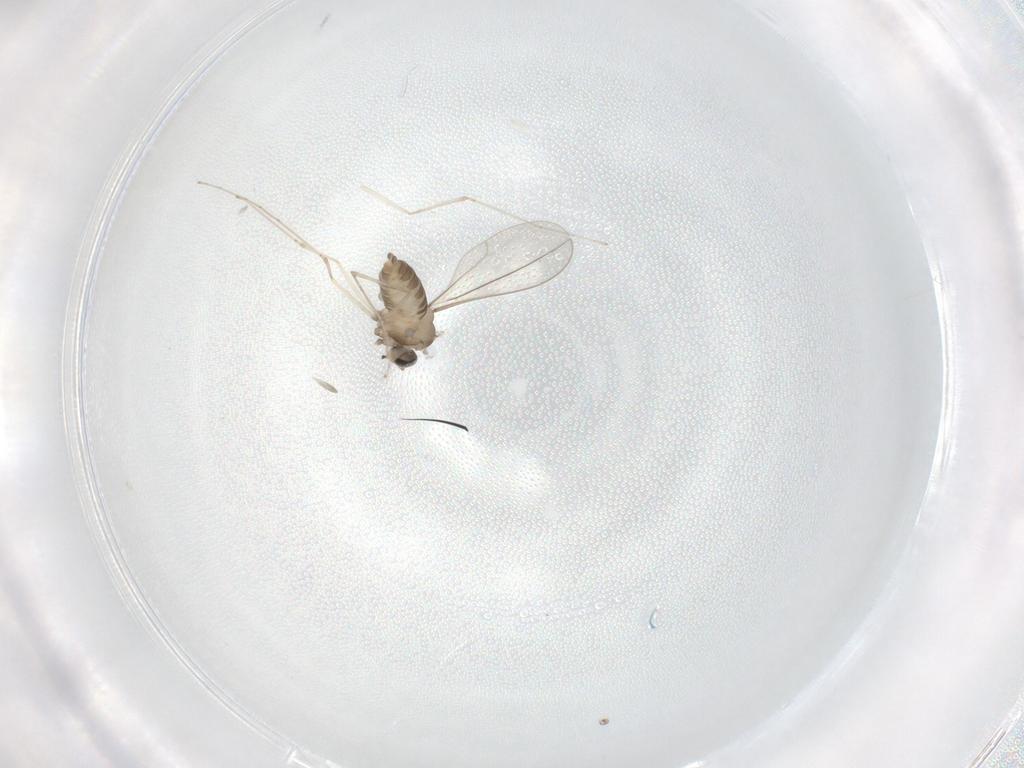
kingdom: Animalia
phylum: Arthropoda
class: Insecta
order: Diptera
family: Cecidomyiidae
